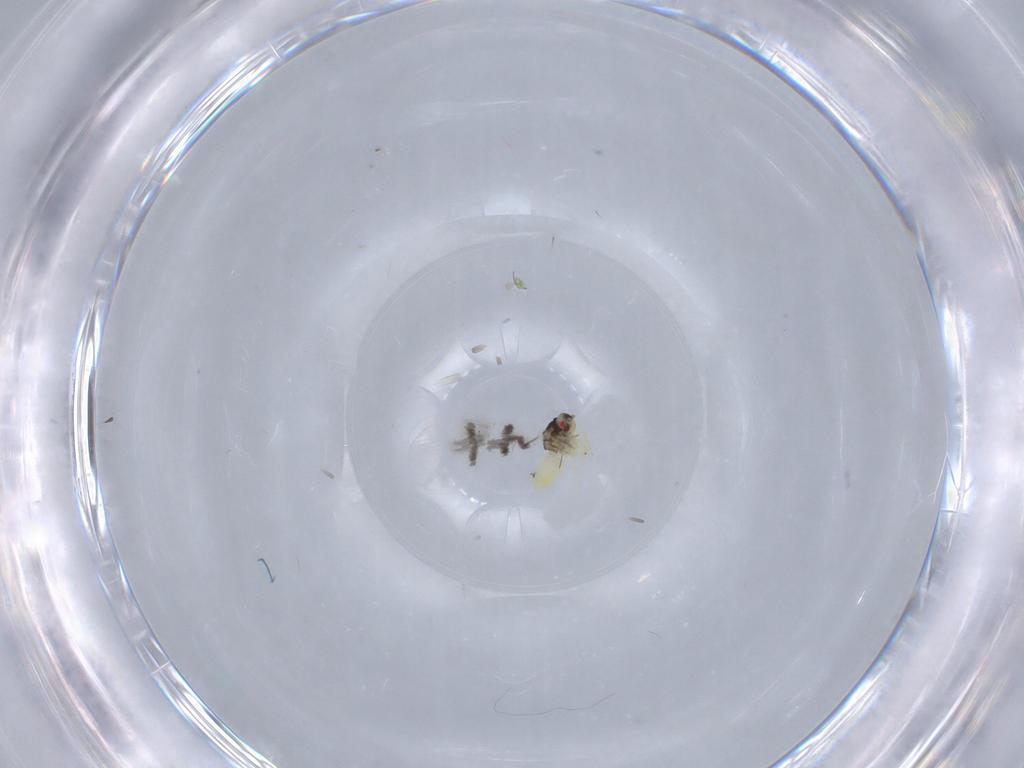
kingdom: Animalia
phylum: Arthropoda
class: Insecta
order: Hemiptera
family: Aleyrodidae
